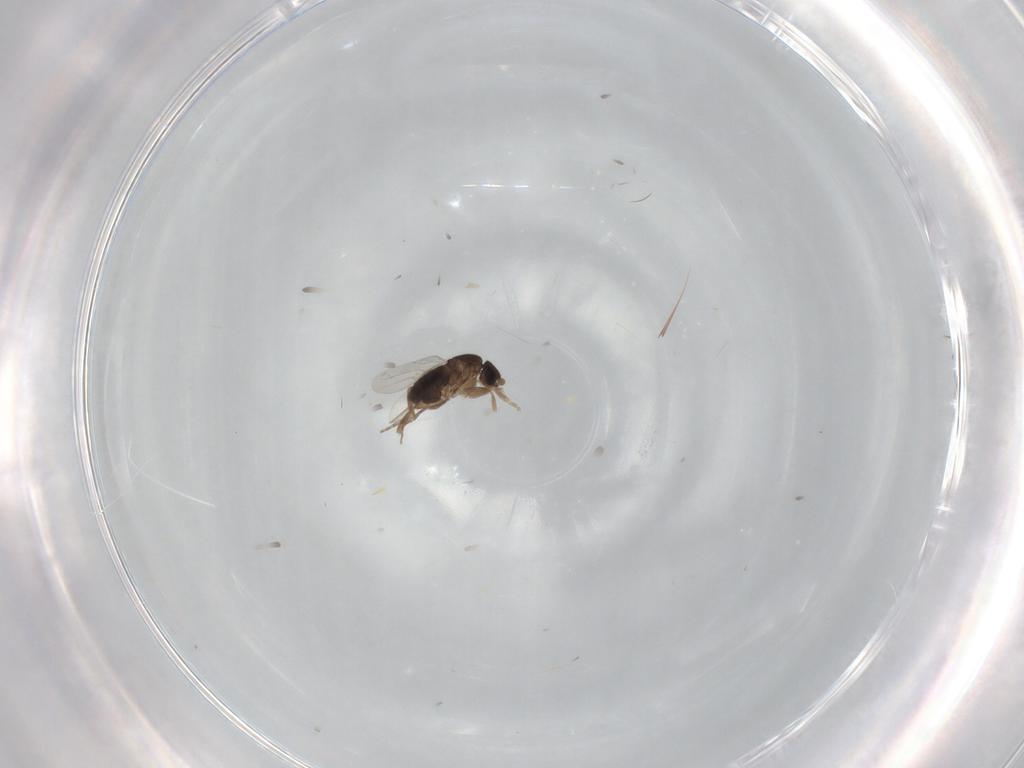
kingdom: Animalia
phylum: Arthropoda
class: Insecta
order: Diptera
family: Phoridae
